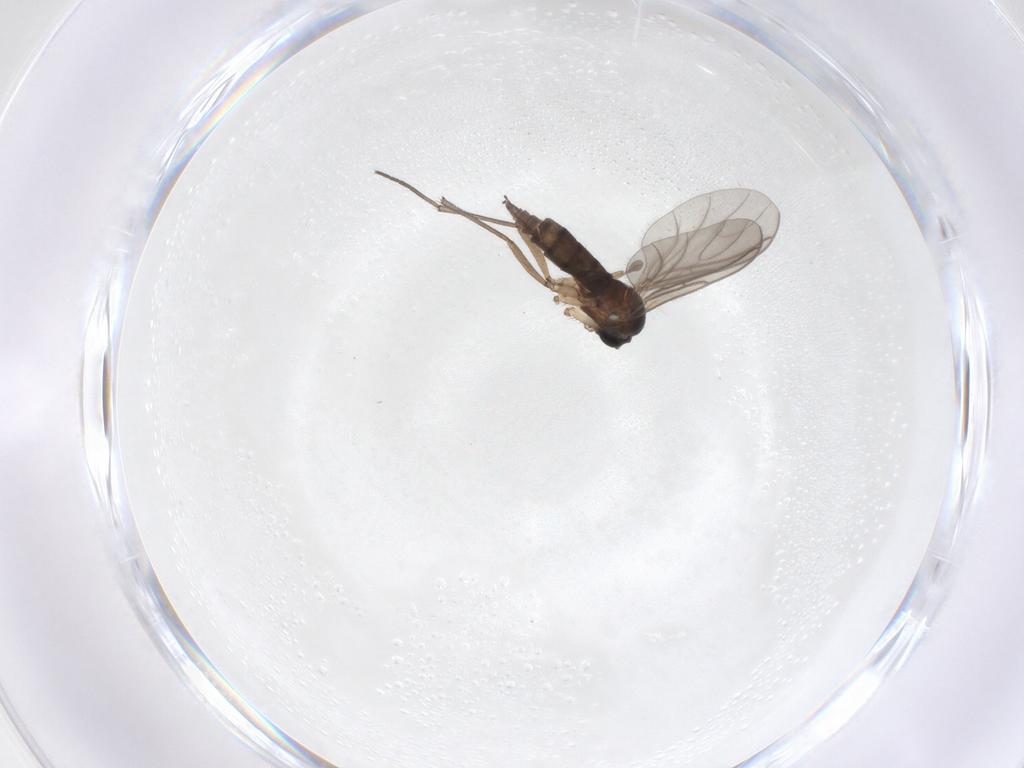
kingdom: Animalia
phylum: Arthropoda
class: Insecta
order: Diptera
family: Sciaridae
